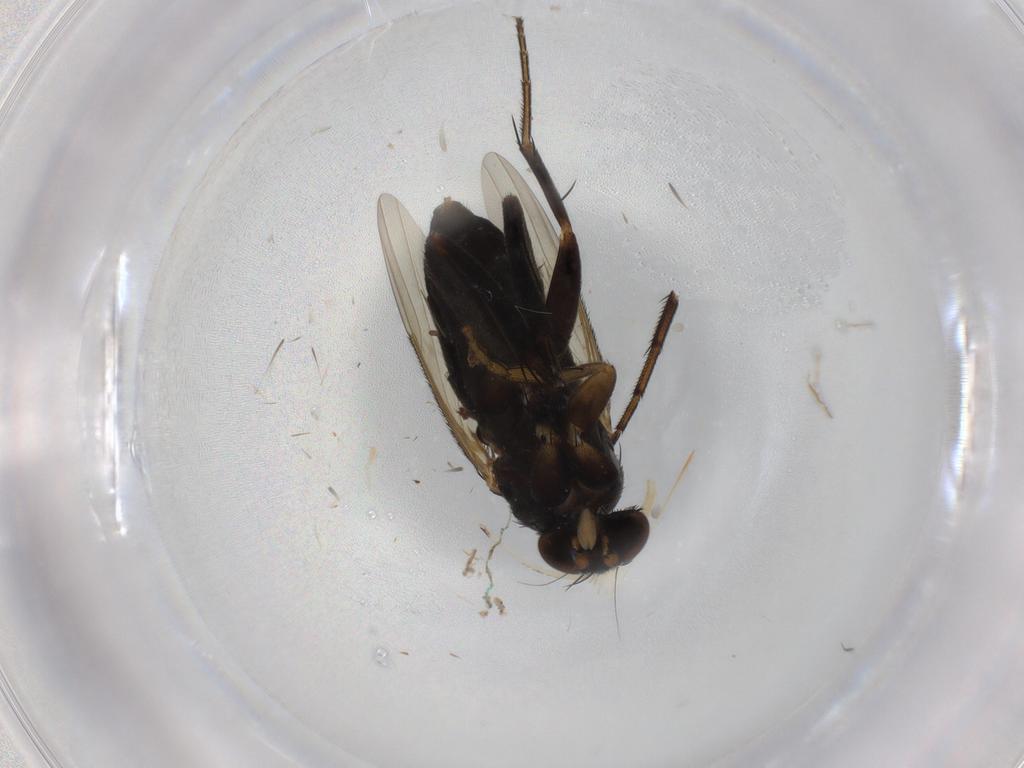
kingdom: Animalia
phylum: Arthropoda
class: Insecta
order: Diptera
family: Phoridae
